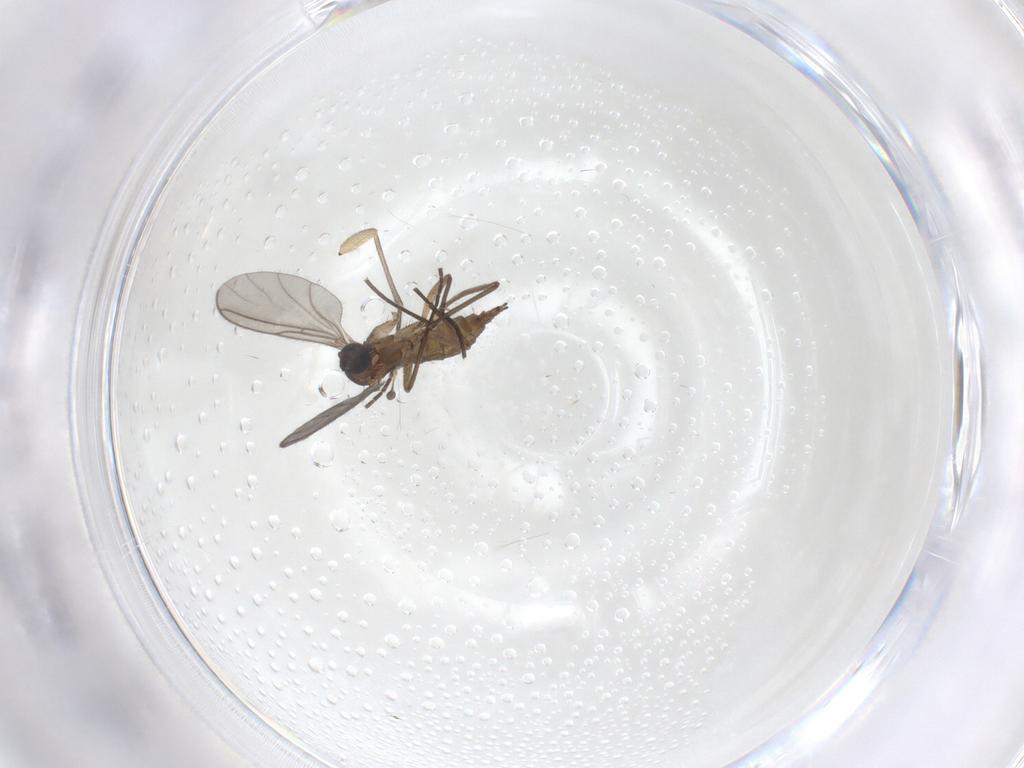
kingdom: Animalia
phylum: Arthropoda
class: Insecta
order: Diptera
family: Sciaridae
